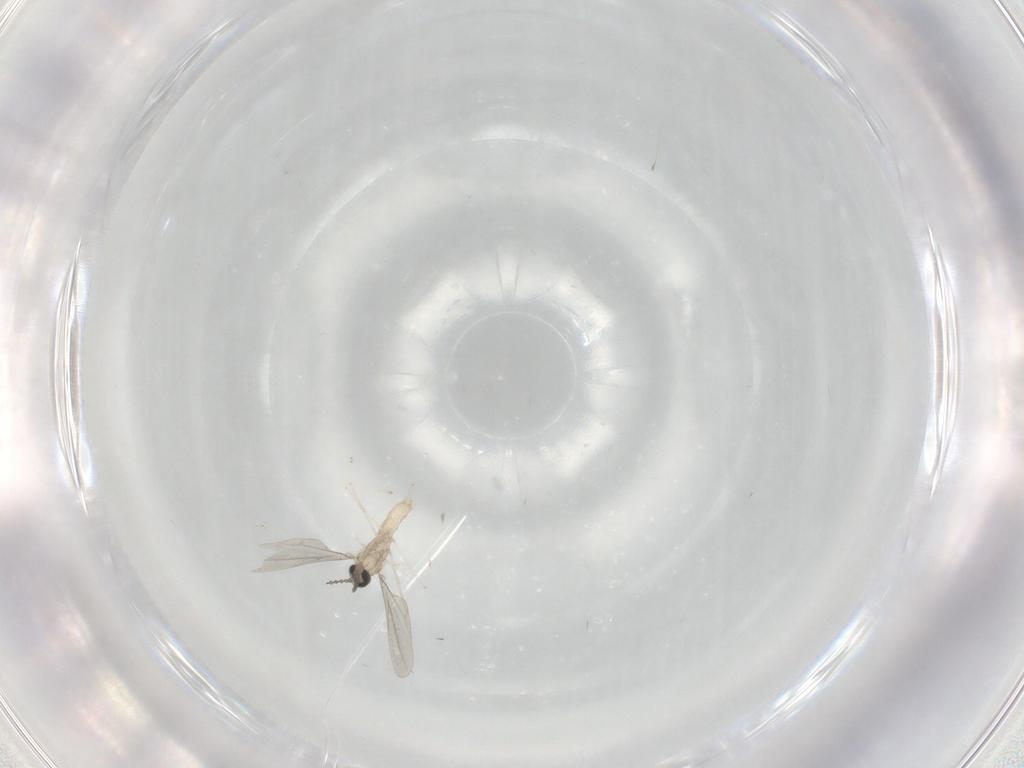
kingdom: Animalia
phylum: Arthropoda
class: Insecta
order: Diptera
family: Cecidomyiidae
